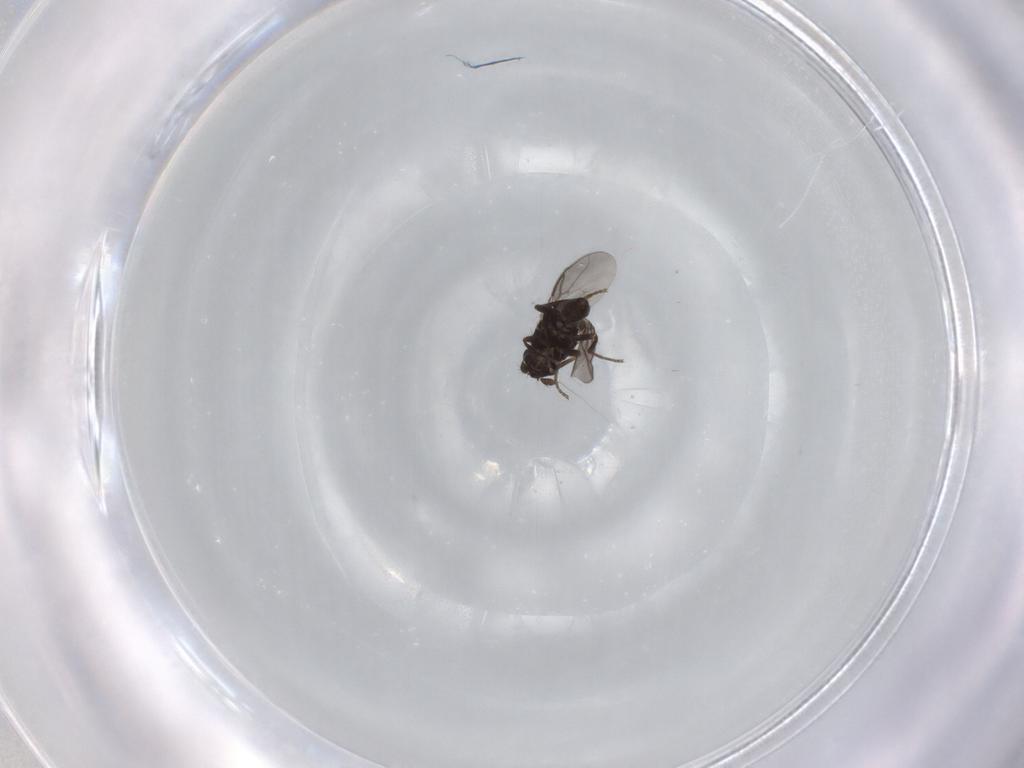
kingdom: Animalia
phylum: Arthropoda
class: Insecta
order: Diptera
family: Sphaeroceridae
